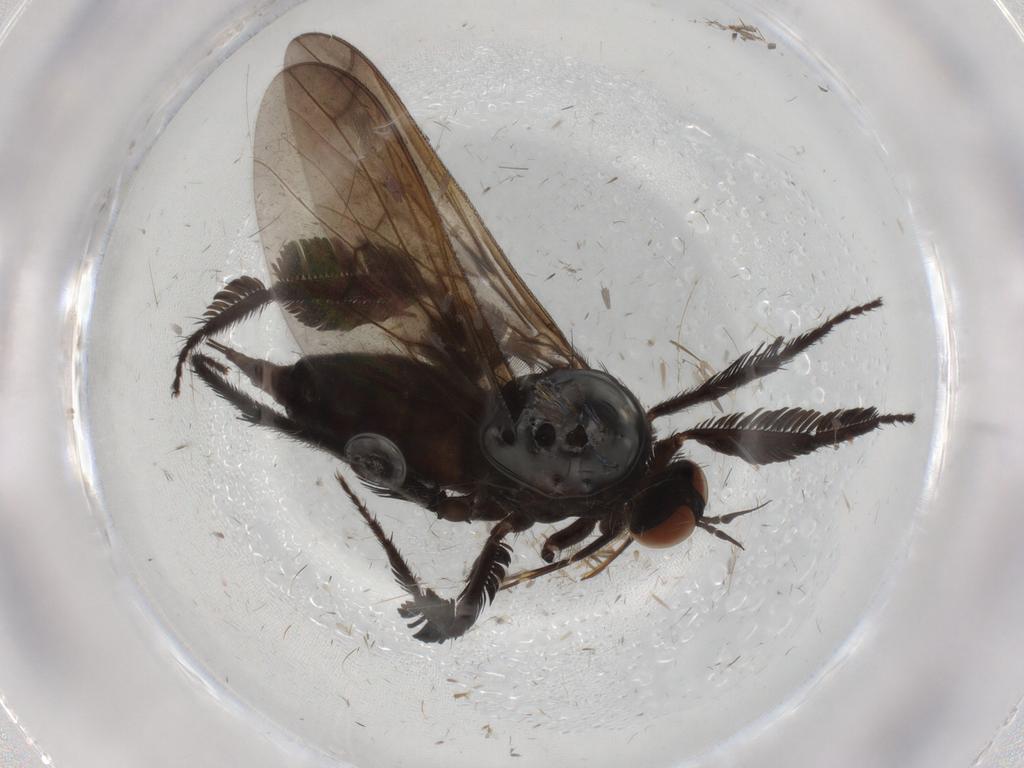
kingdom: Animalia
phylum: Arthropoda
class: Insecta
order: Diptera
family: Empididae
